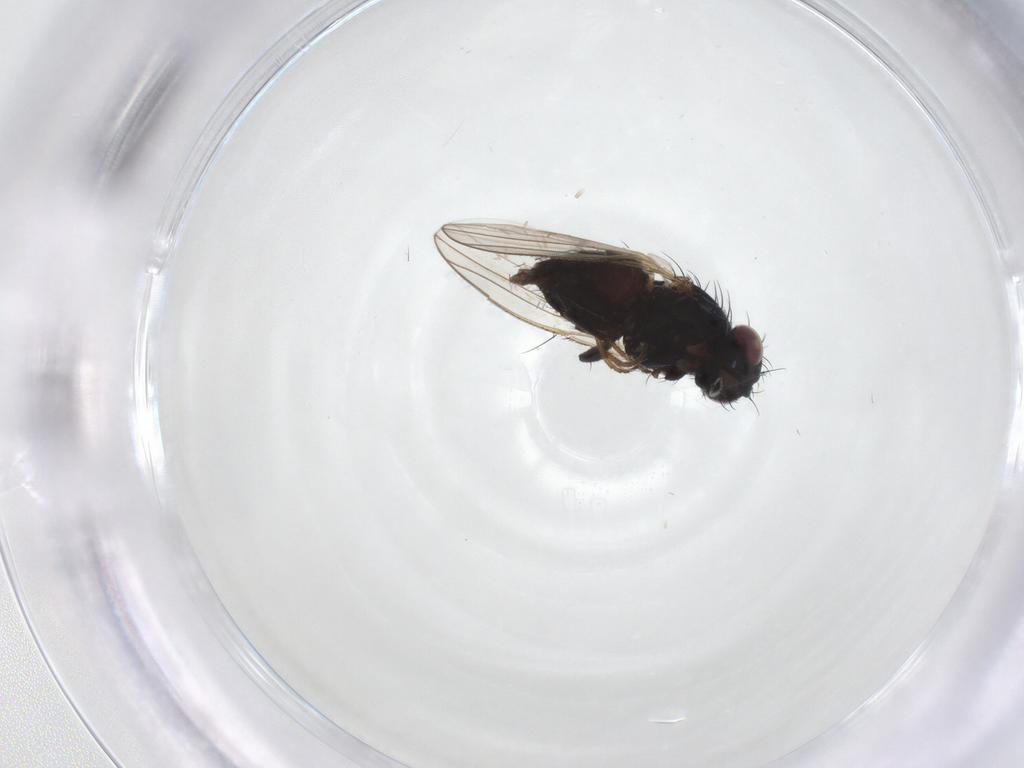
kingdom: Animalia
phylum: Arthropoda
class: Insecta
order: Diptera
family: Carnidae
